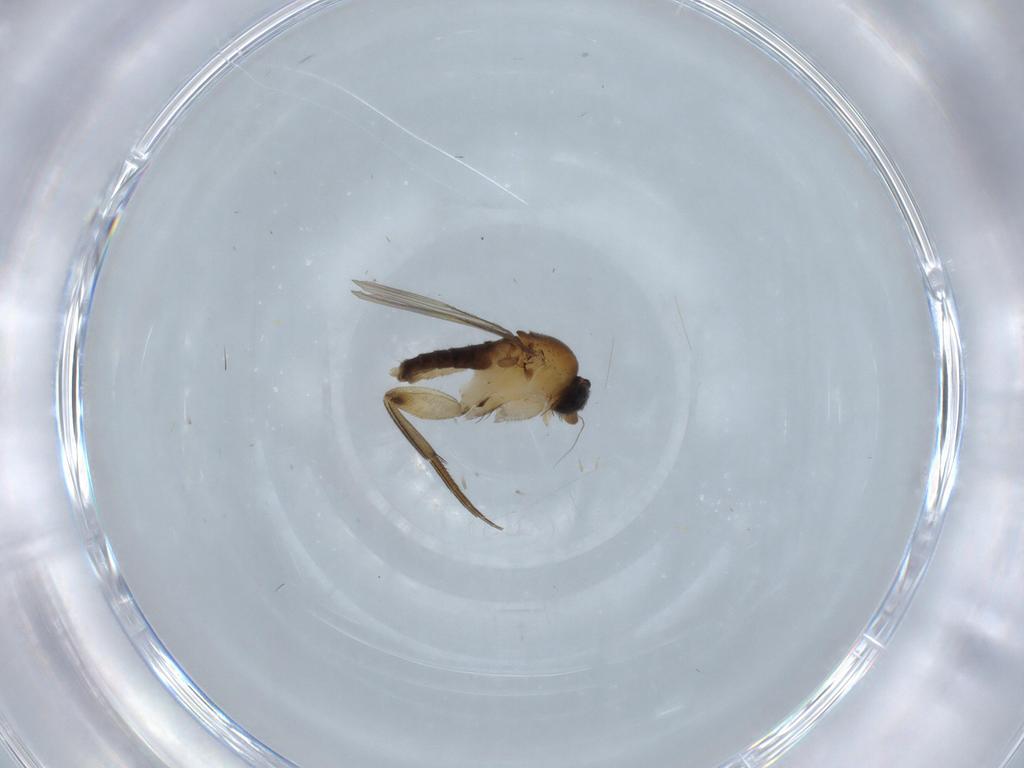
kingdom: Animalia
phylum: Arthropoda
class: Insecta
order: Diptera
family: Phoridae
